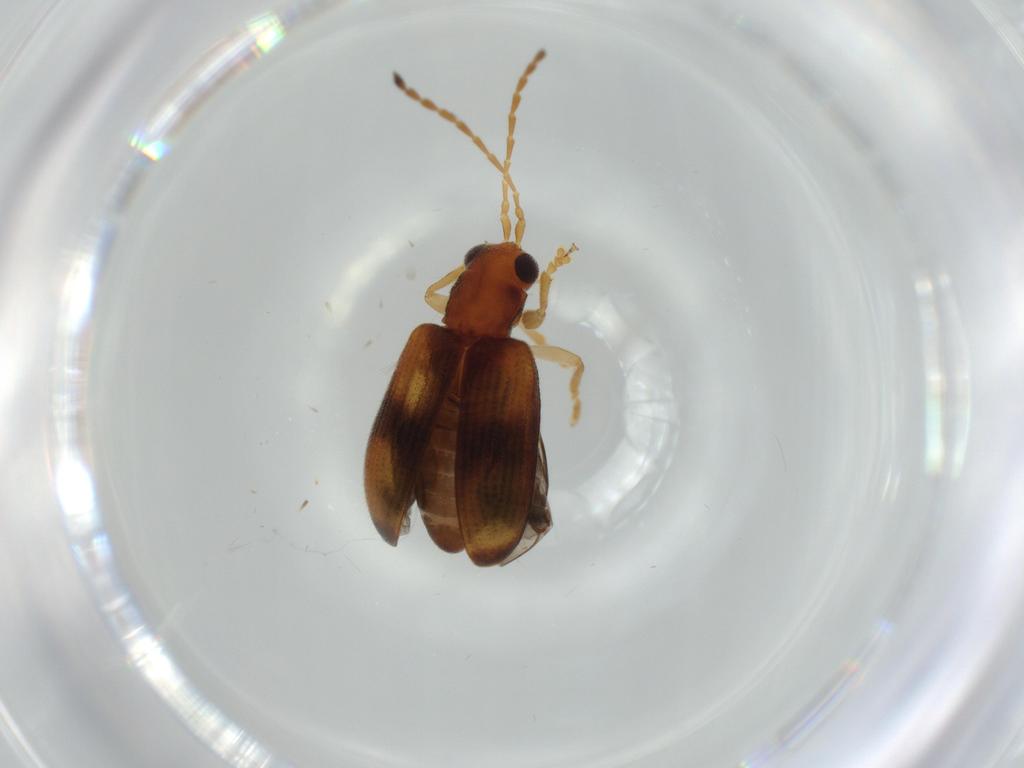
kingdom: Animalia
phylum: Arthropoda
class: Insecta
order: Coleoptera
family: Chrysomelidae
